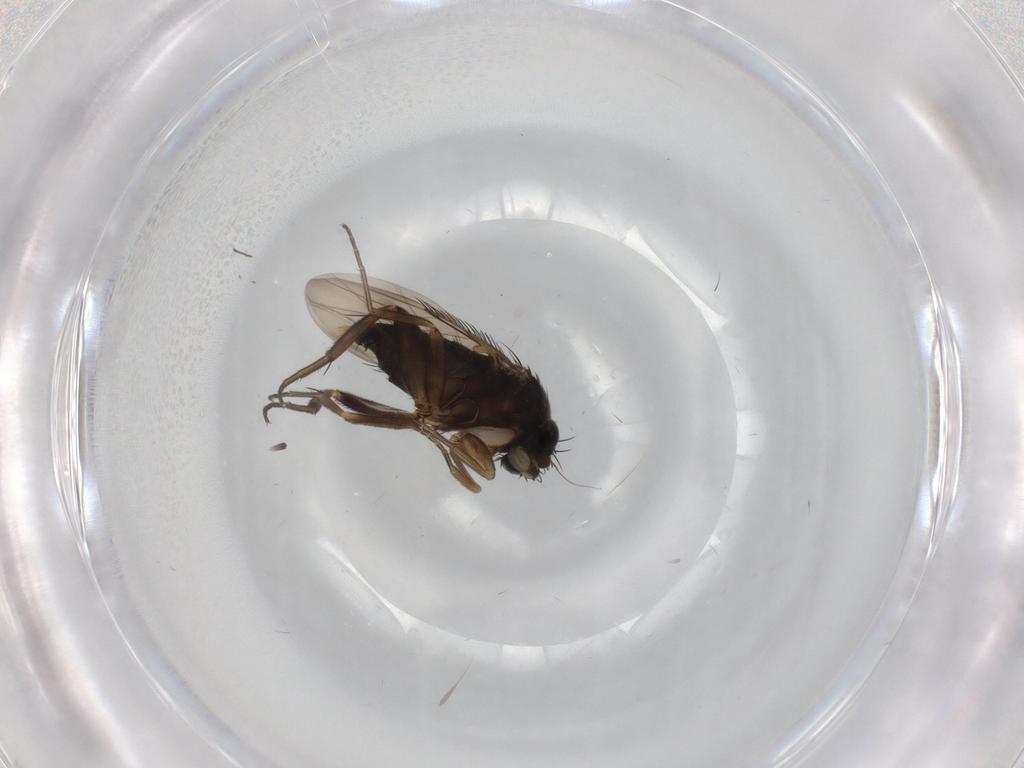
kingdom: Animalia
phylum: Arthropoda
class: Insecta
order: Diptera
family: Phoridae
